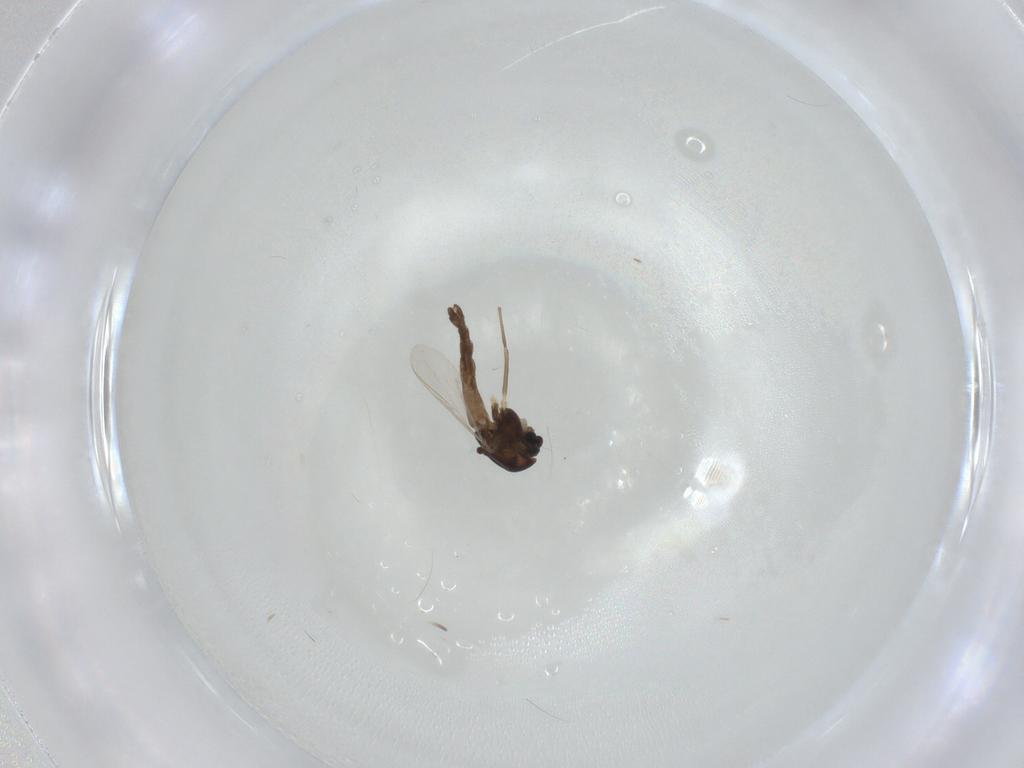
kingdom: Animalia
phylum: Arthropoda
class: Insecta
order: Diptera
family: Chironomidae
